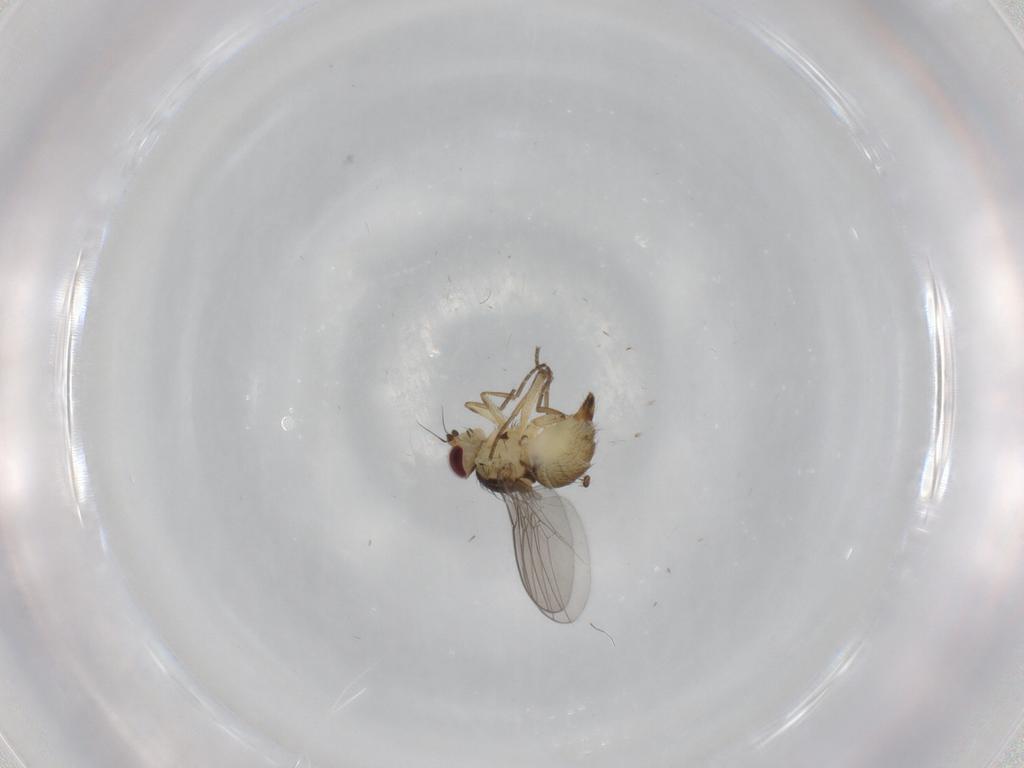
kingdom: Animalia
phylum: Arthropoda
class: Insecta
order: Diptera
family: Agromyzidae
